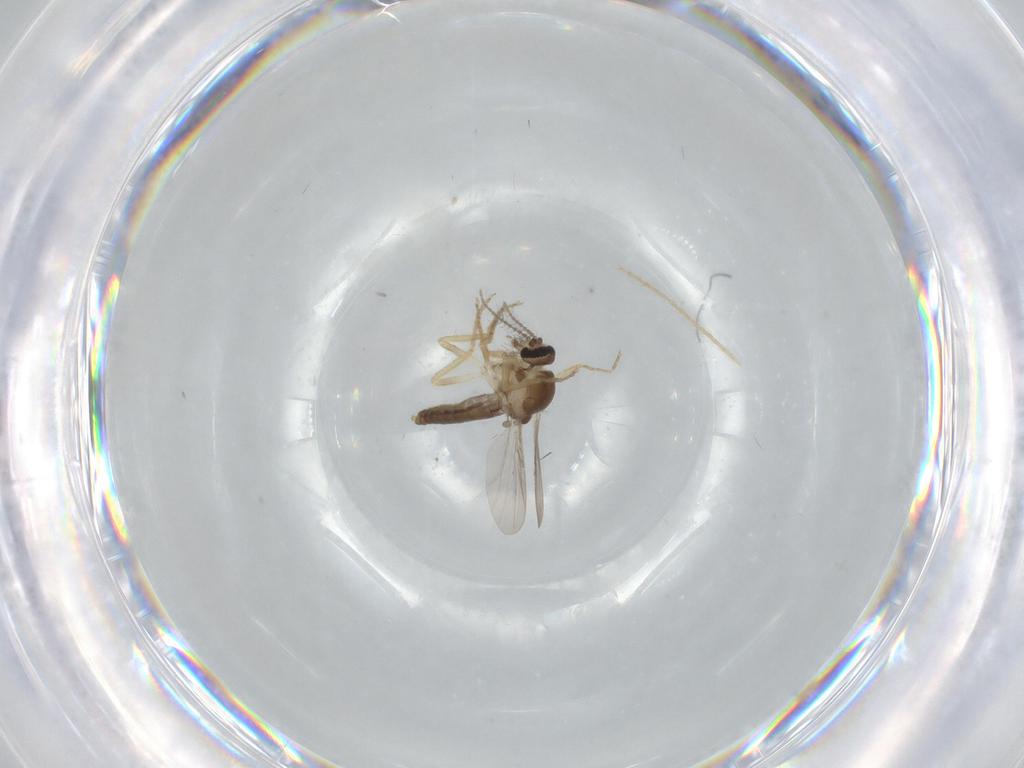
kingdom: Animalia
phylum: Arthropoda
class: Insecta
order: Diptera
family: Ceratopogonidae
